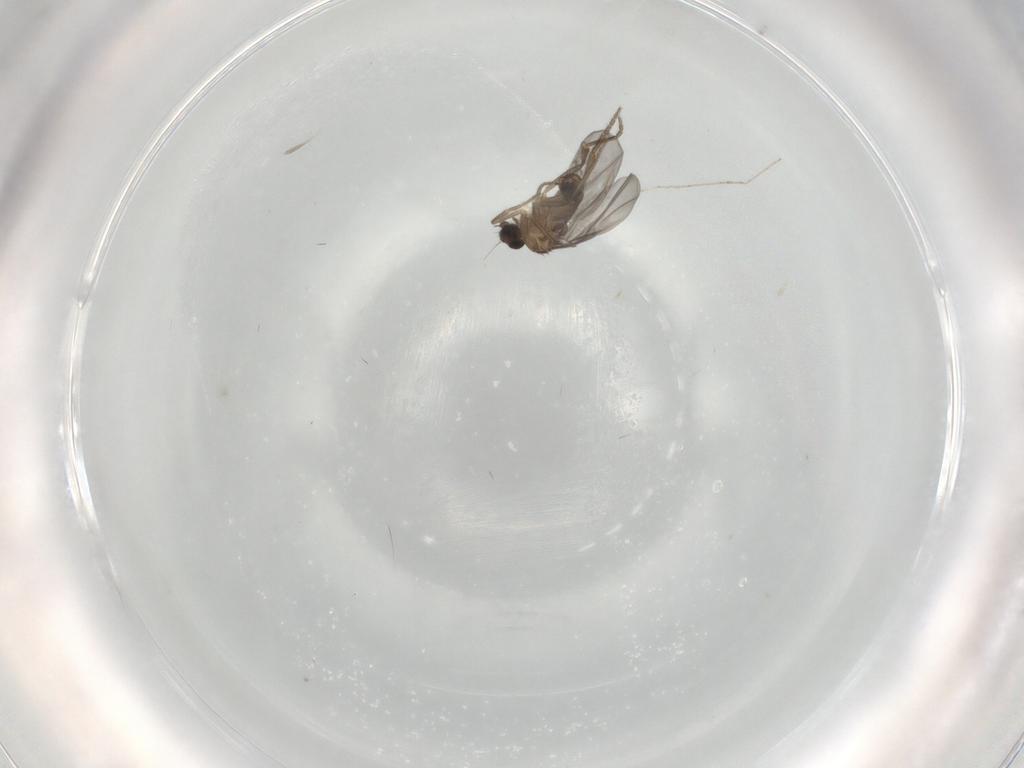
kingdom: Animalia
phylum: Arthropoda
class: Insecta
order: Diptera
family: Phoridae
